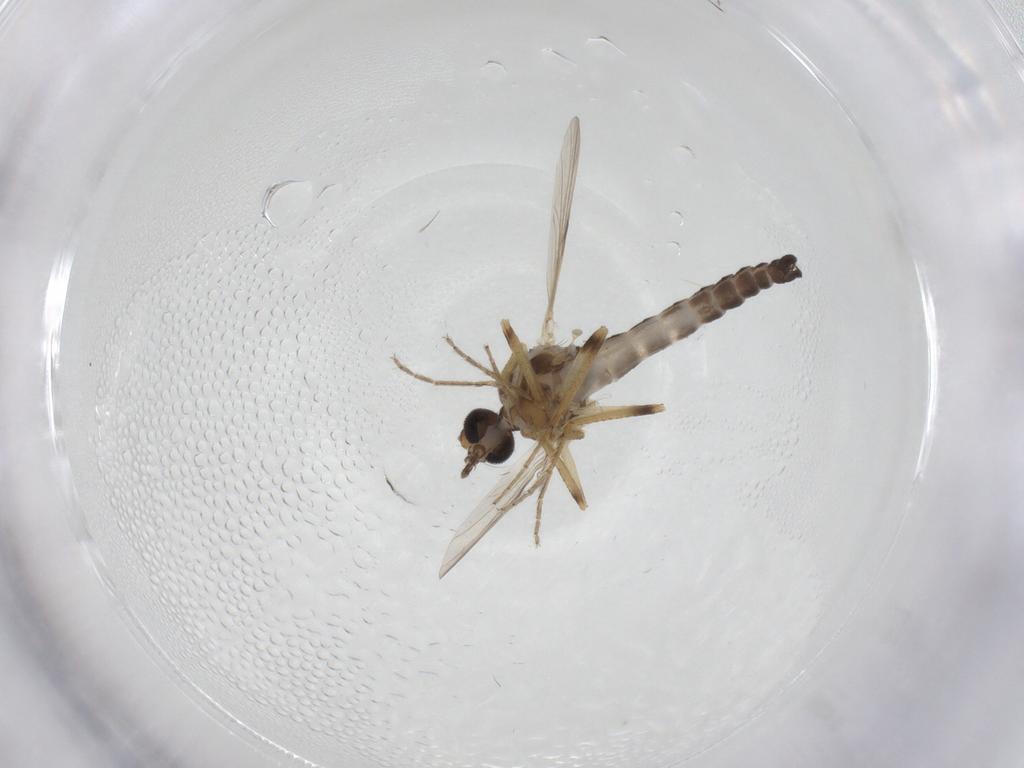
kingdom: Animalia
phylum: Arthropoda
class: Insecta
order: Diptera
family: Ceratopogonidae
